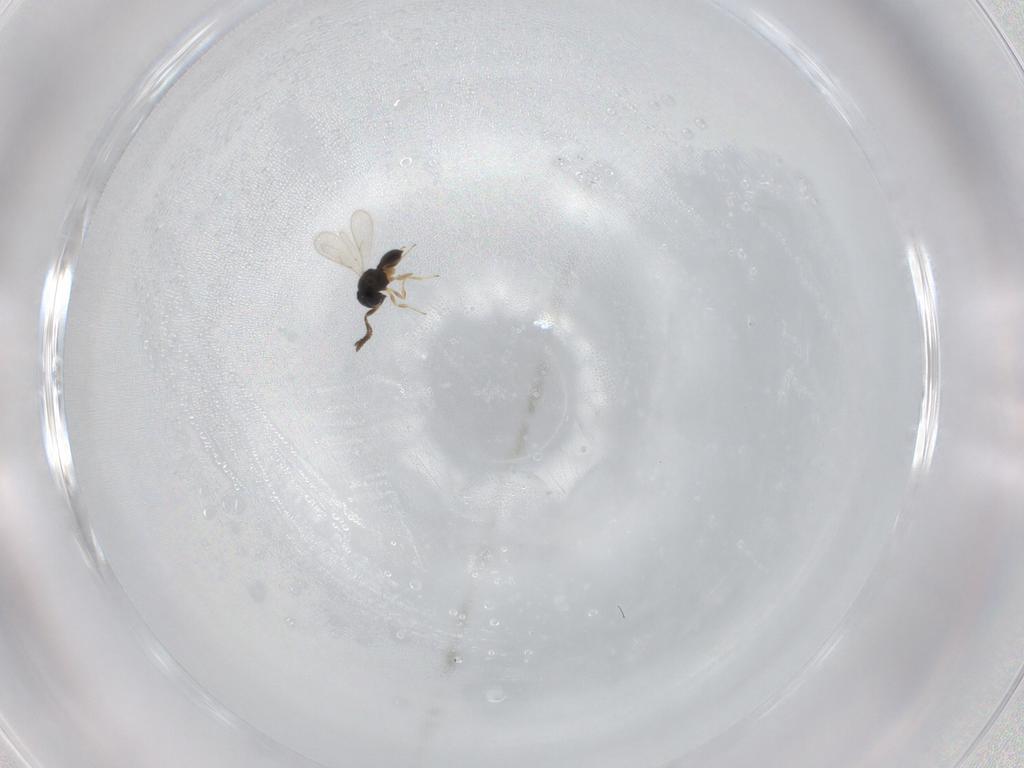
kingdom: Animalia
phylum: Arthropoda
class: Insecta
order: Hymenoptera
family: Scelionidae
